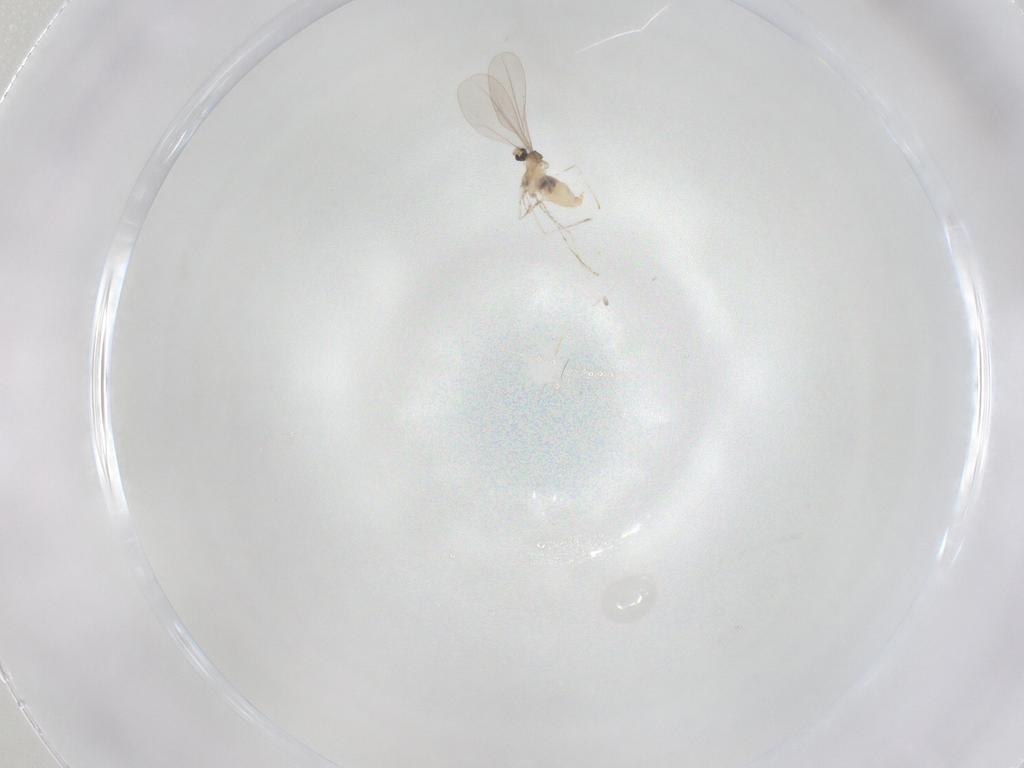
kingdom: Animalia
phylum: Arthropoda
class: Insecta
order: Diptera
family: Cecidomyiidae
